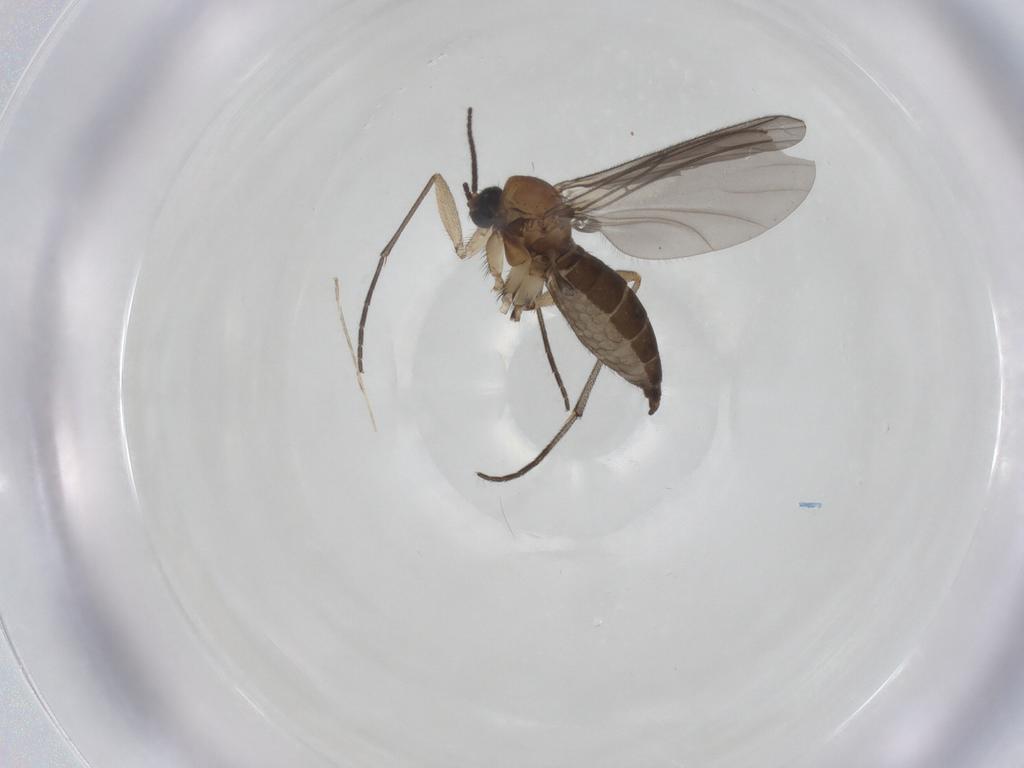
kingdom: Animalia
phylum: Arthropoda
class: Insecta
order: Diptera
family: Sciaridae
